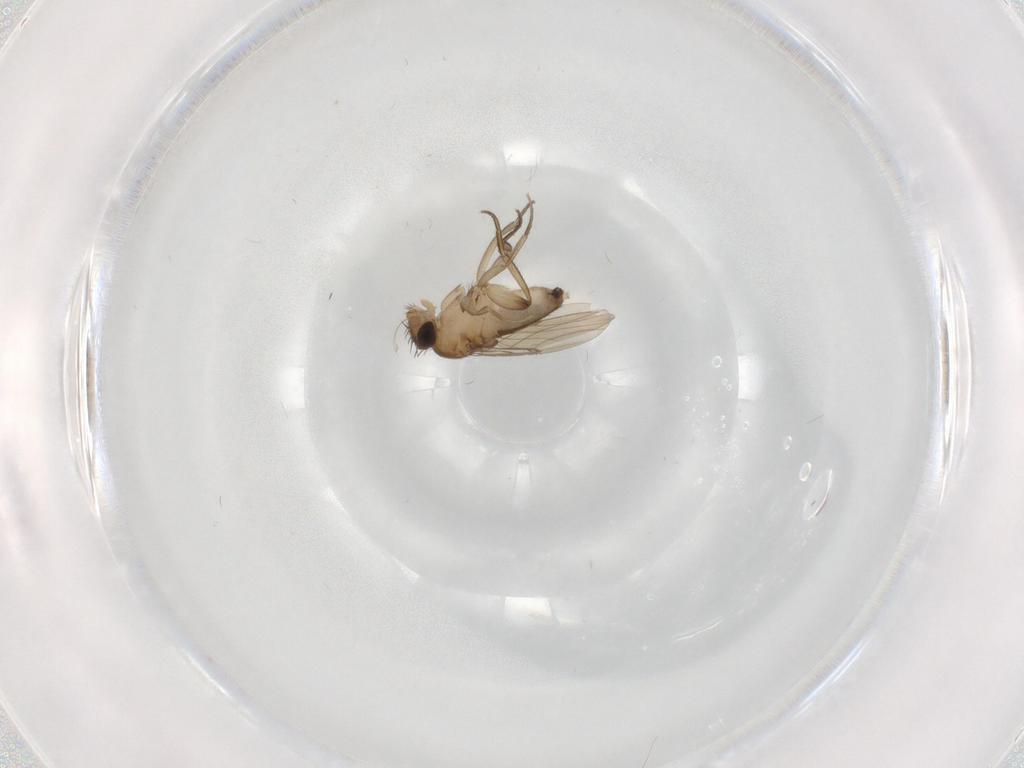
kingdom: Animalia
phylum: Arthropoda
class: Insecta
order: Diptera
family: Phoridae
